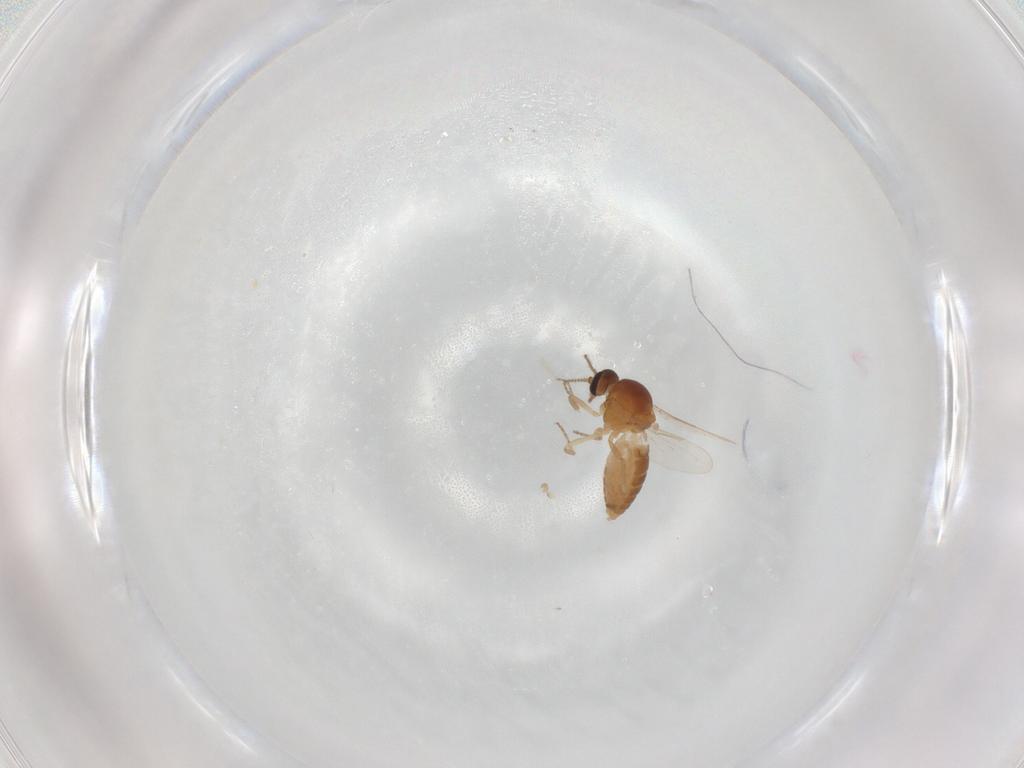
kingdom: Animalia
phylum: Arthropoda
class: Insecta
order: Diptera
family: Ceratopogonidae
